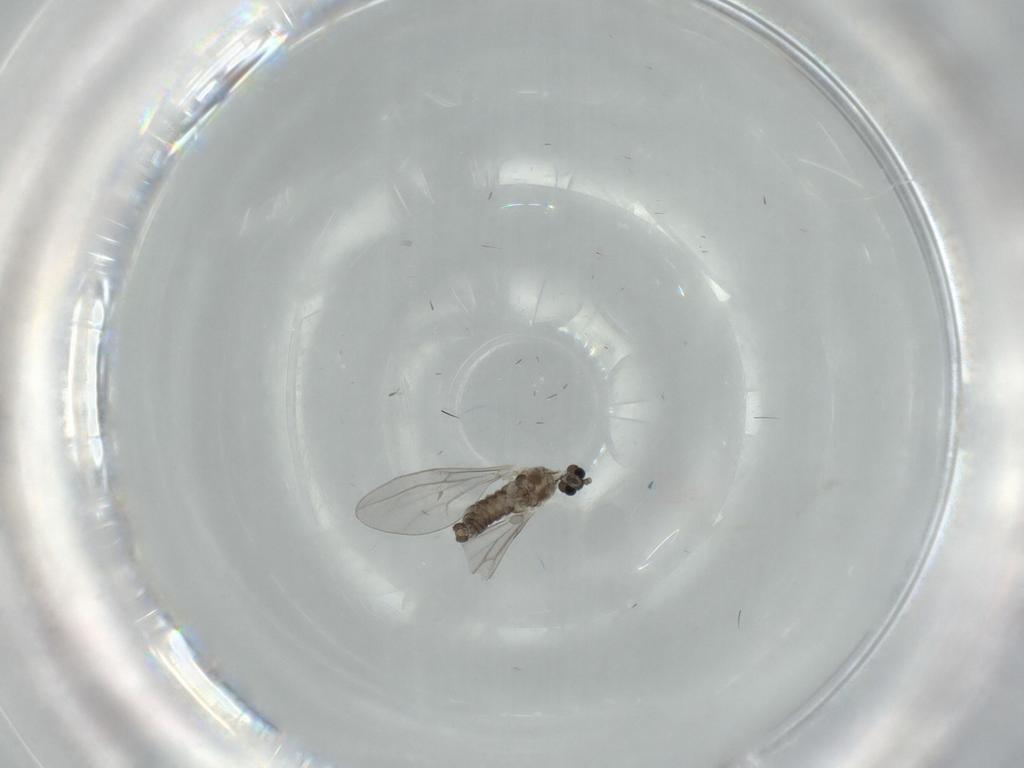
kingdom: Animalia
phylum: Arthropoda
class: Insecta
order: Diptera
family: Cecidomyiidae
